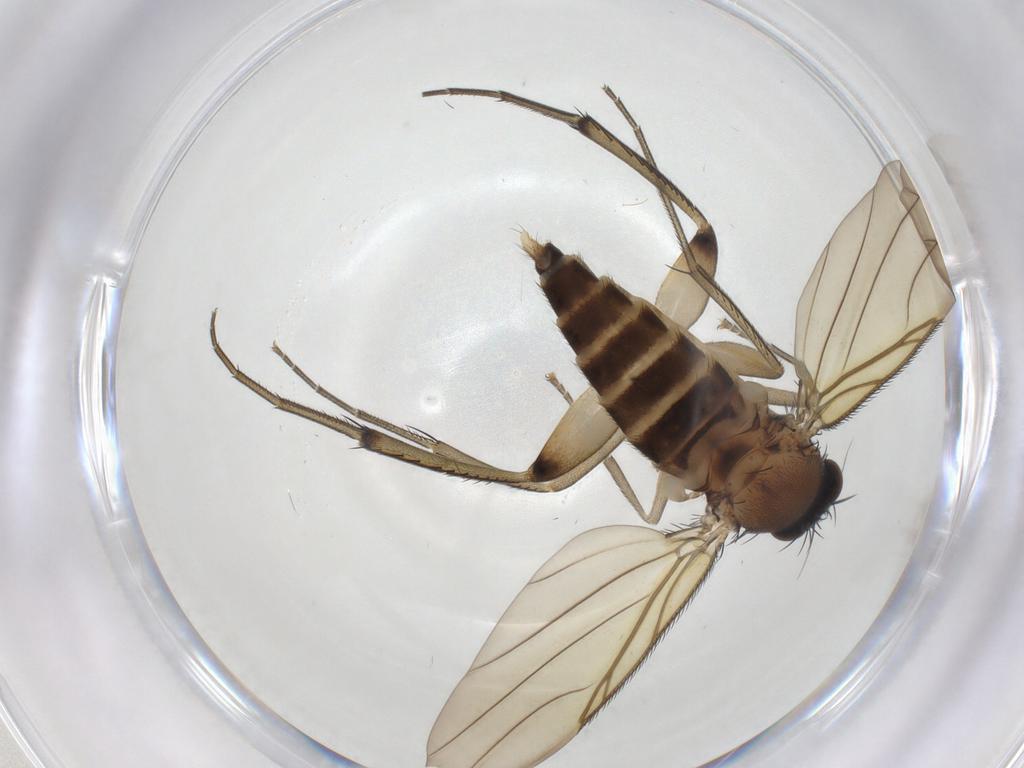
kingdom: Animalia
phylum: Arthropoda
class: Insecta
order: Diptera
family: Phoridae
